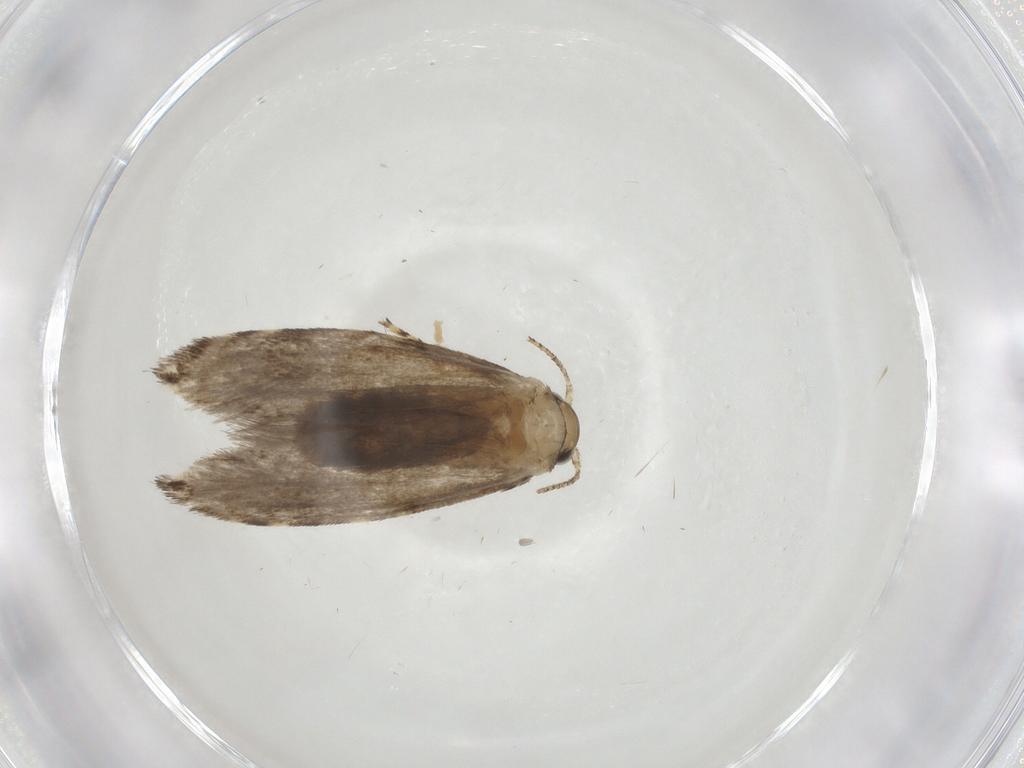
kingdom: Animalia
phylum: Arthropoda
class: Insecta
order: Lepidoptera
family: Tineidae
